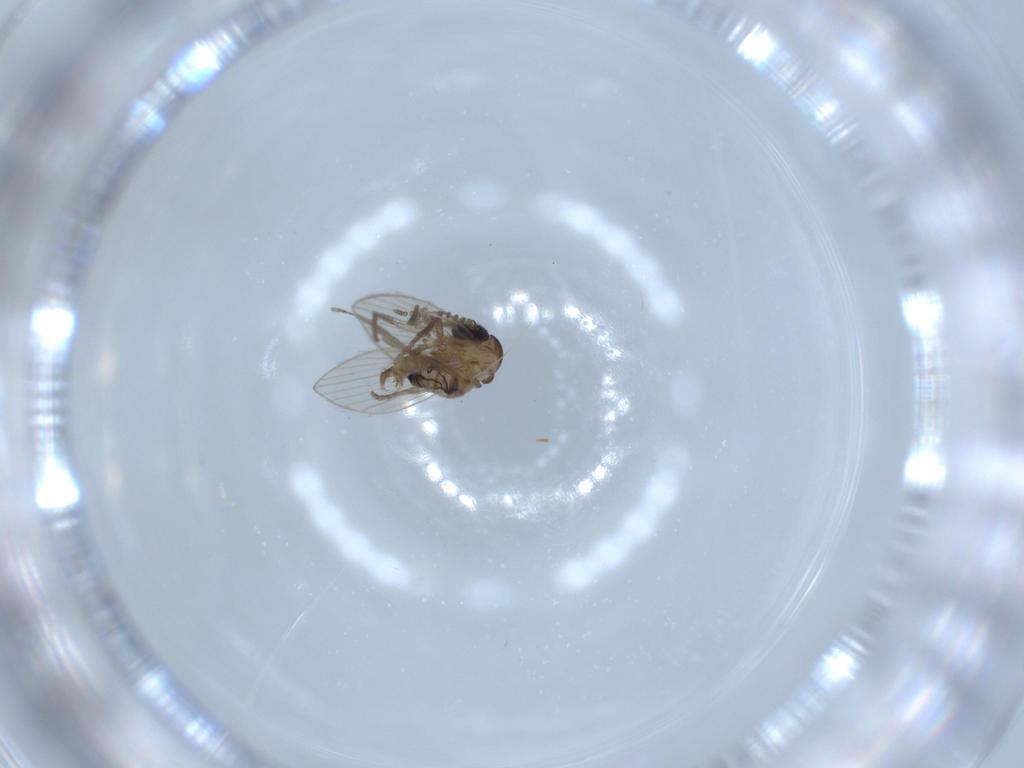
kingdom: Animalia
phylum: Arthropoda
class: Insecta
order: Diptera
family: Psychodidae
